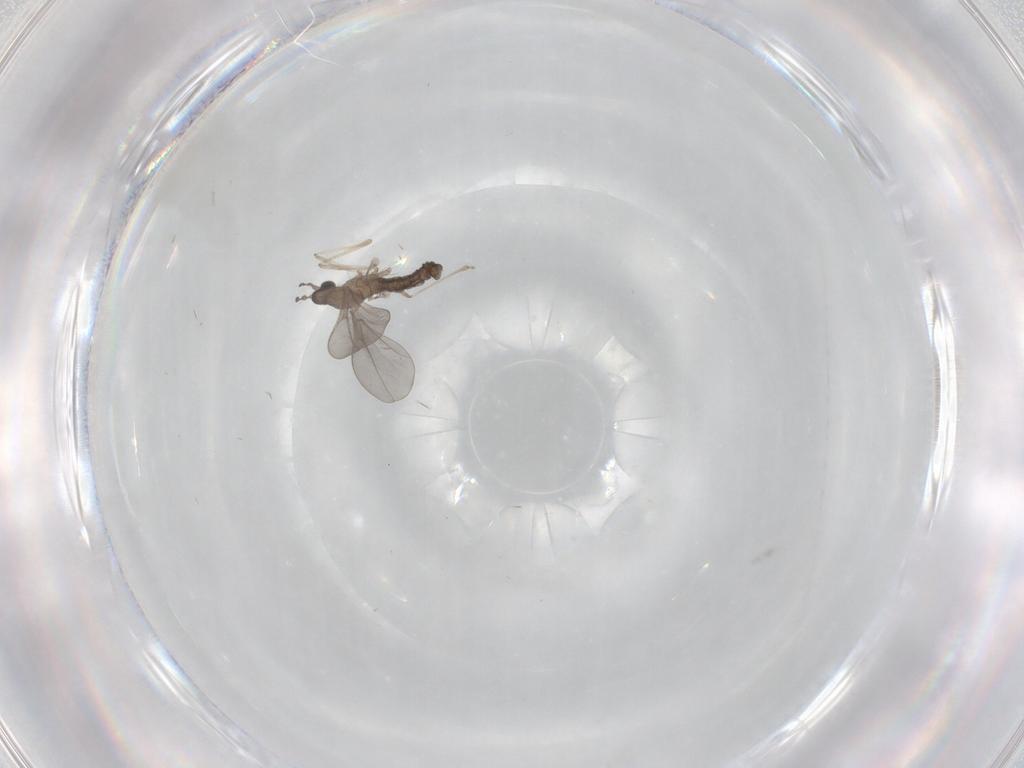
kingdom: Animalia
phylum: Arthropoda
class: Insecta
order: Diptera
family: Cecidomyiidae
